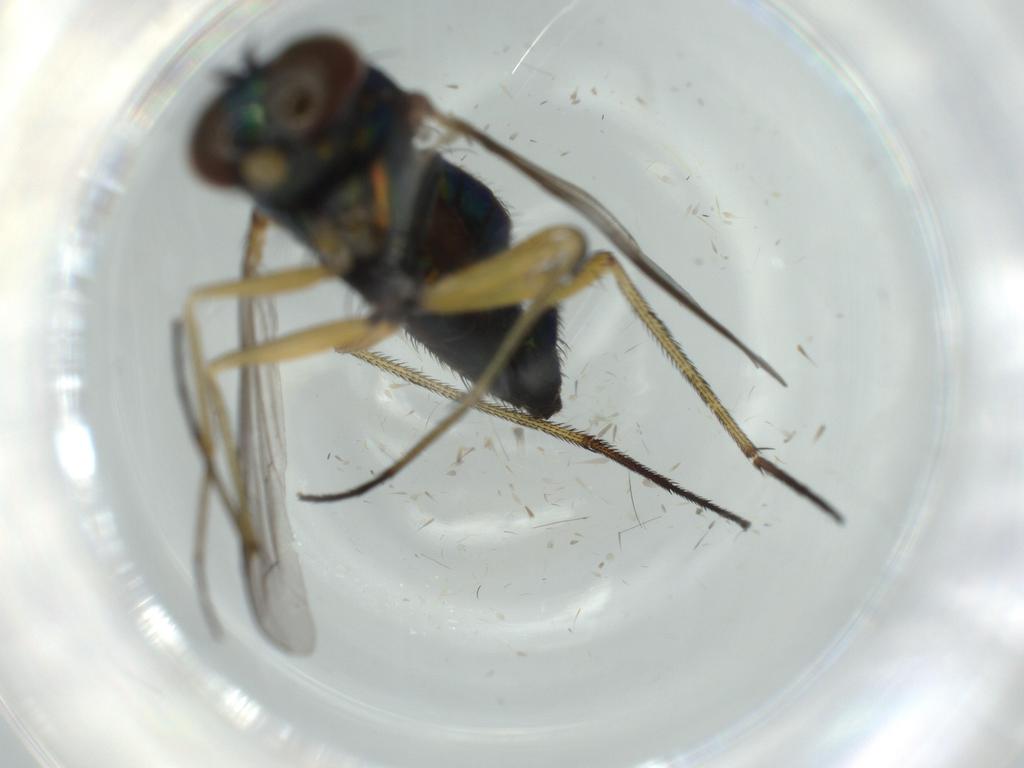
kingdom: Animalia
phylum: Arthropoda
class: Insecta
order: Diptera
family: Dolichopodidae
